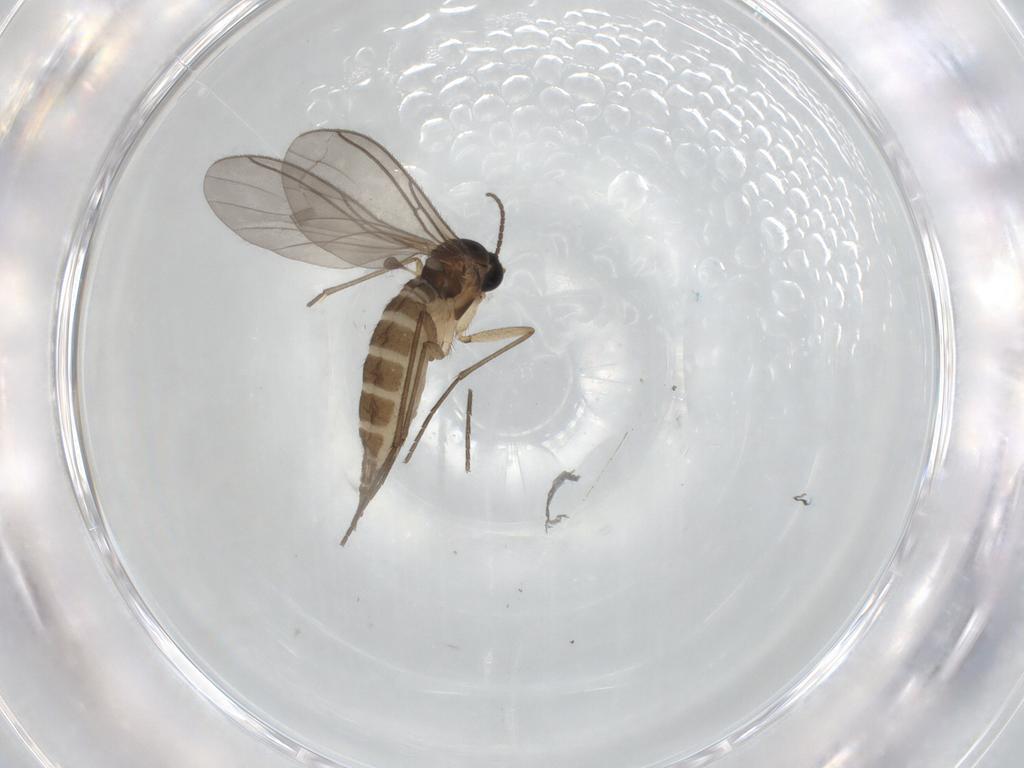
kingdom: Animalia
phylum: Arthropoda
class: Insecta
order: Diptera
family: Sciaridae
